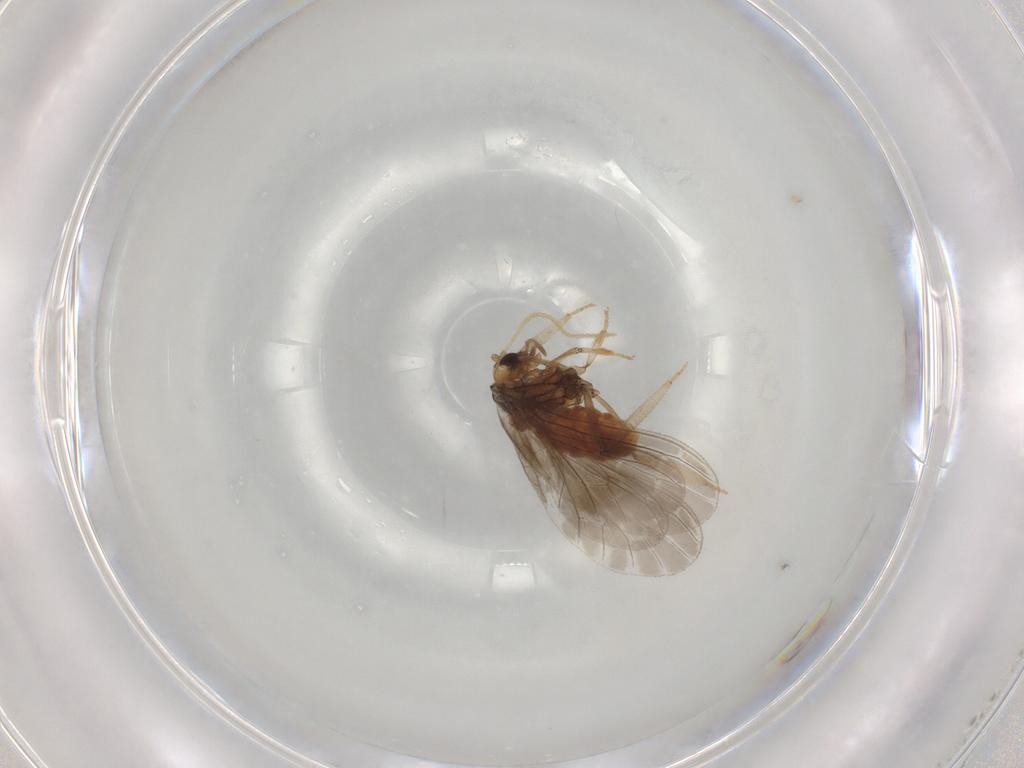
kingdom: Animalia
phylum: Arthropoda
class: Insecta
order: Neuroptera
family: Coniopterygidae
